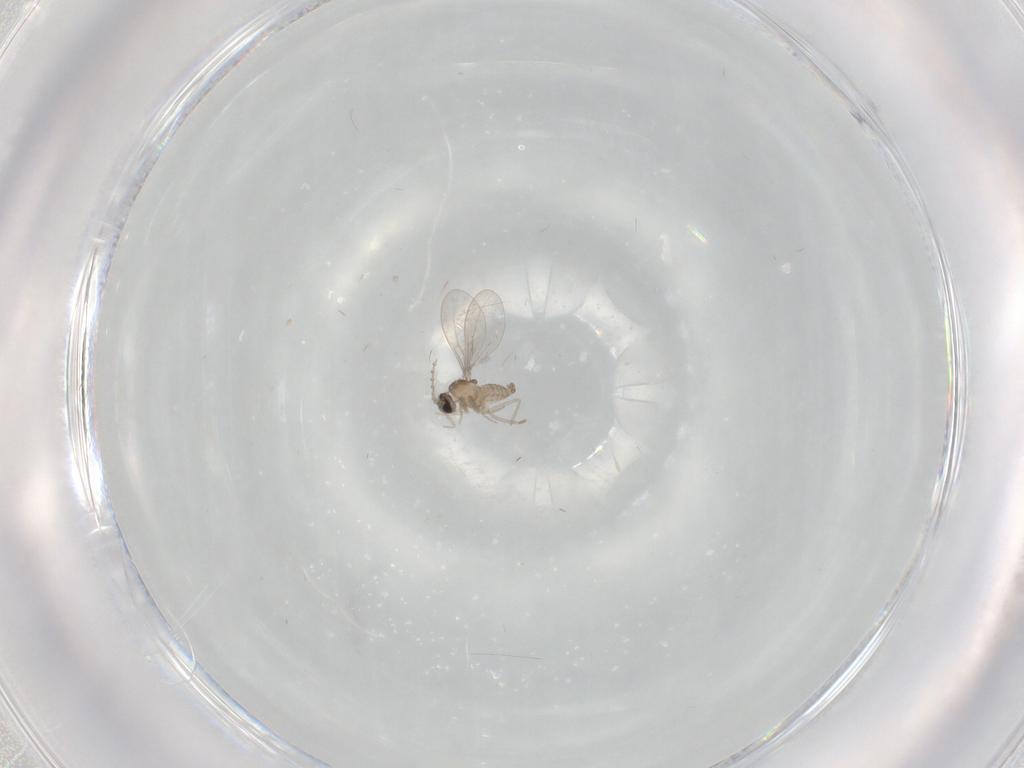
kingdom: Animalia
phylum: Arthropoda
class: Insecta
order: Diptera
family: Cecidomyiidae
